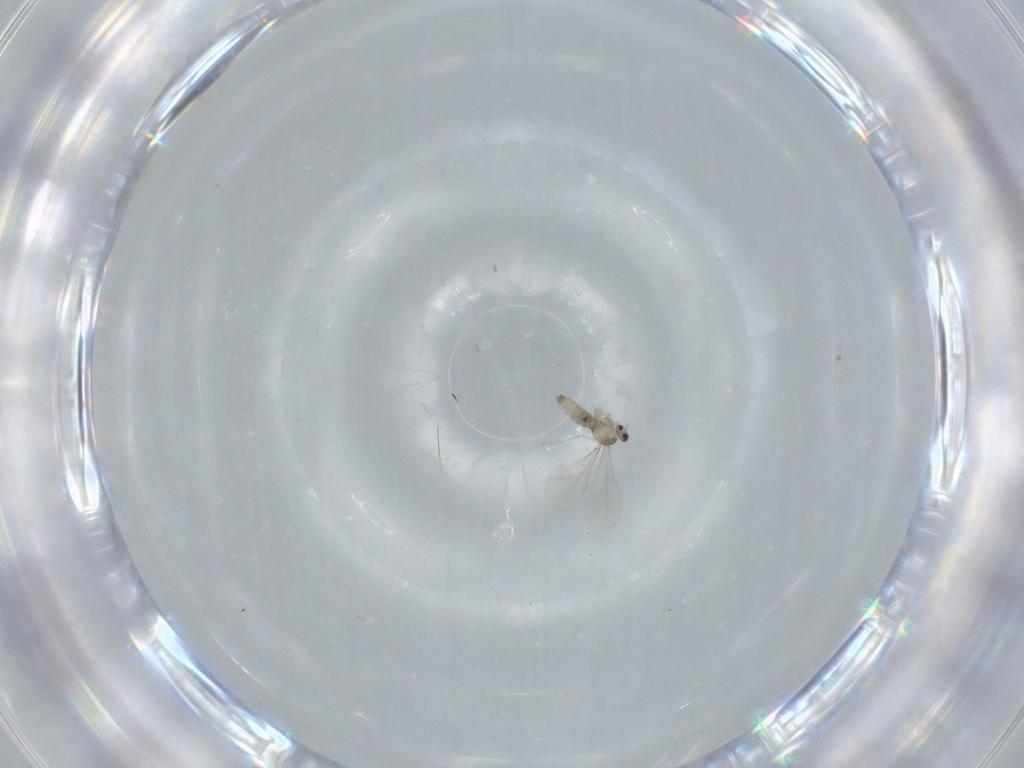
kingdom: Animalia
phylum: Arthropoda
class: Insecta
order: Diptera
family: Cecidomyiidae
